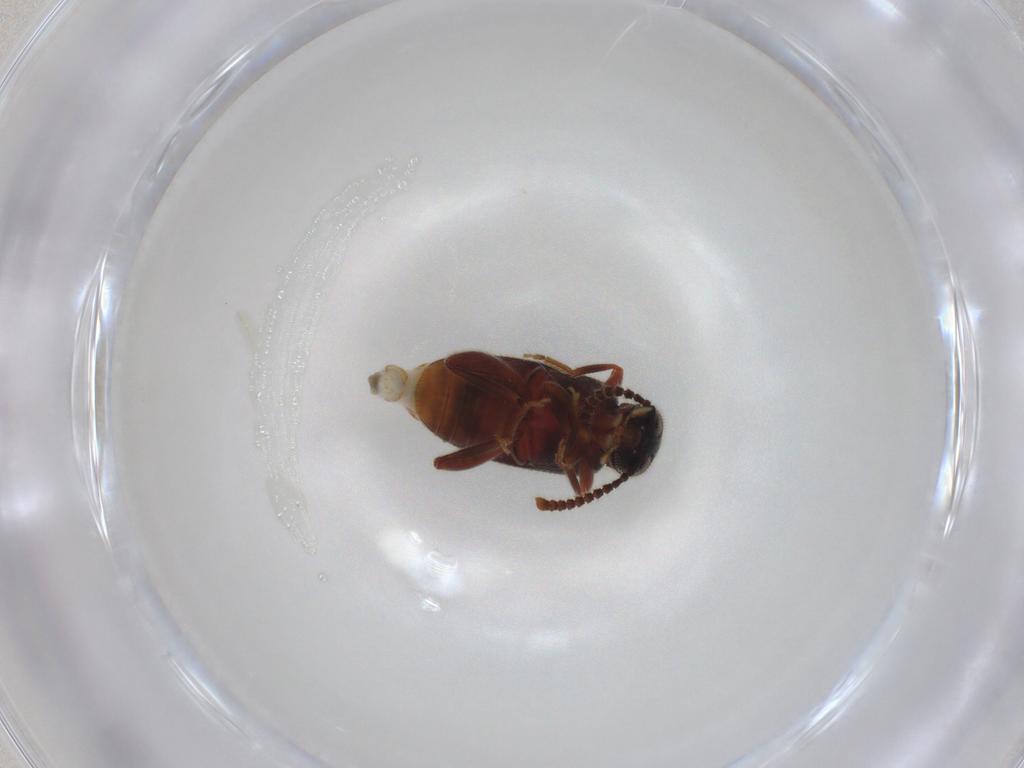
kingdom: Animalia
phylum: Arthropoda
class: Insecta
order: Coleoptera
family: Aderidae
